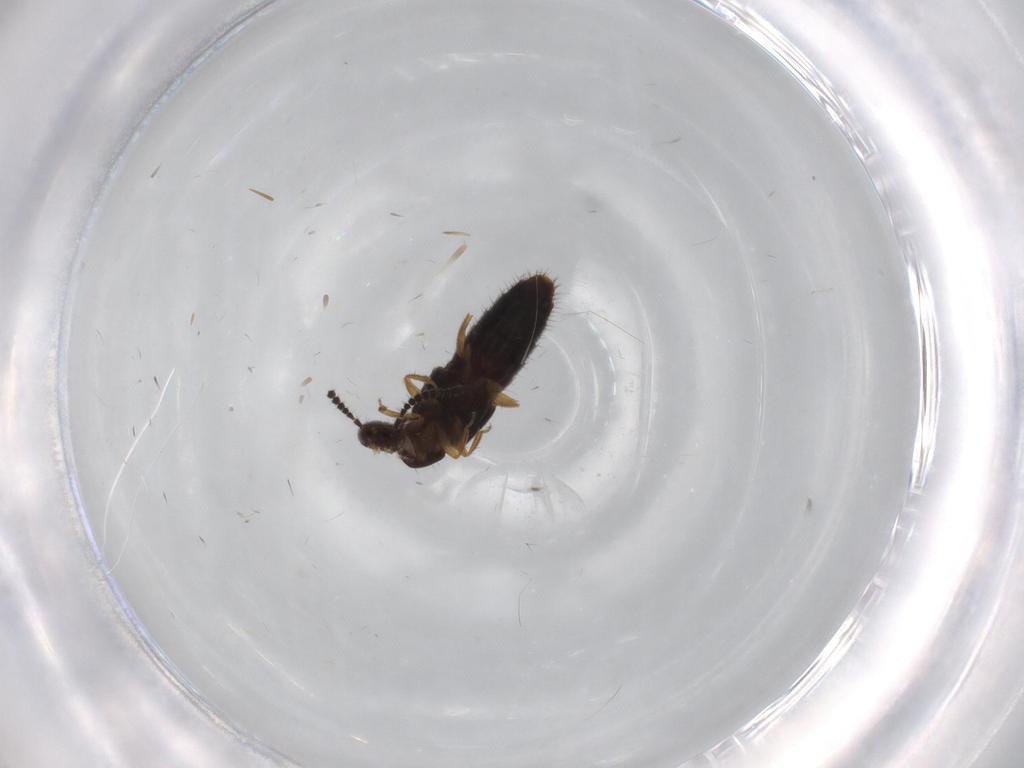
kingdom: Animalia
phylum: Arthropoda
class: Insecta
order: Coleoptera
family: Staphylinidae
